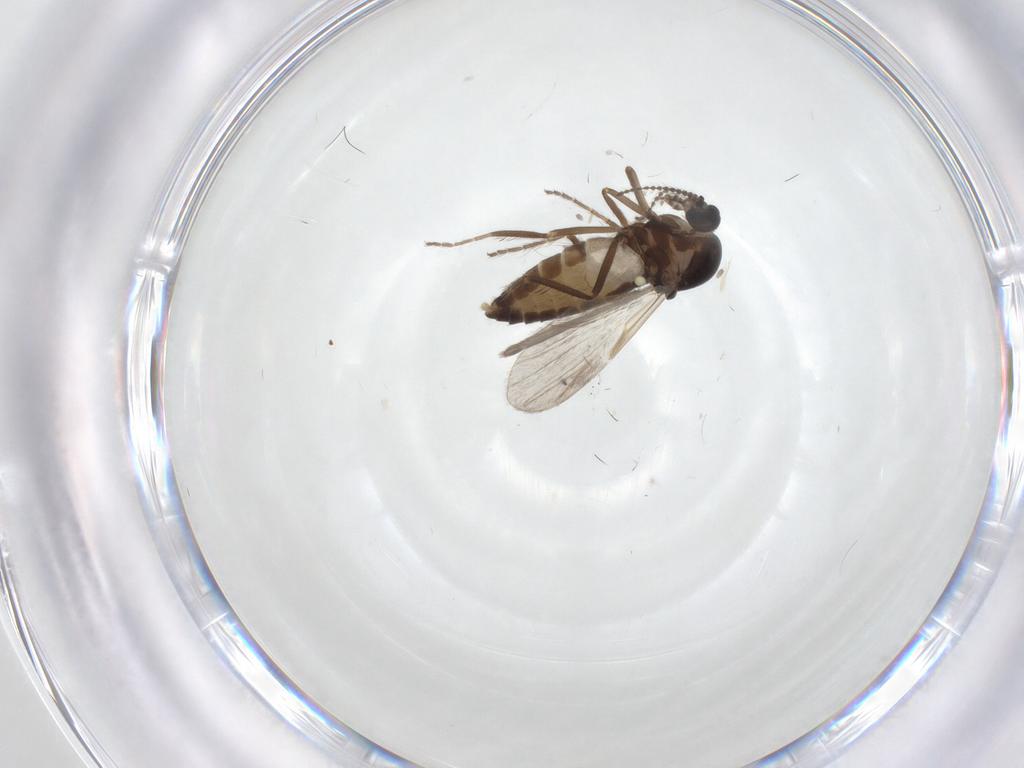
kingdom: Animalia
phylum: Arthropoda
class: Insecta
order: Diptera
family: Ceratopogonidae
